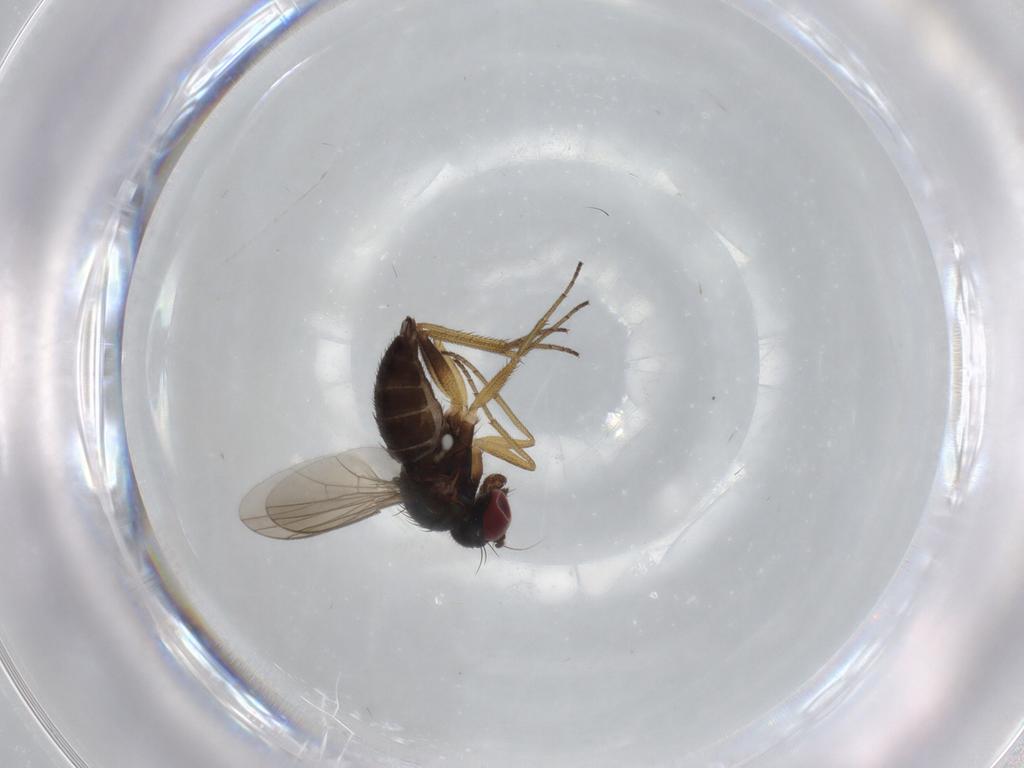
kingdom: Animalia
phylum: Arthropoda
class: Insecta
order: Diptera
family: Dolichopodidae
